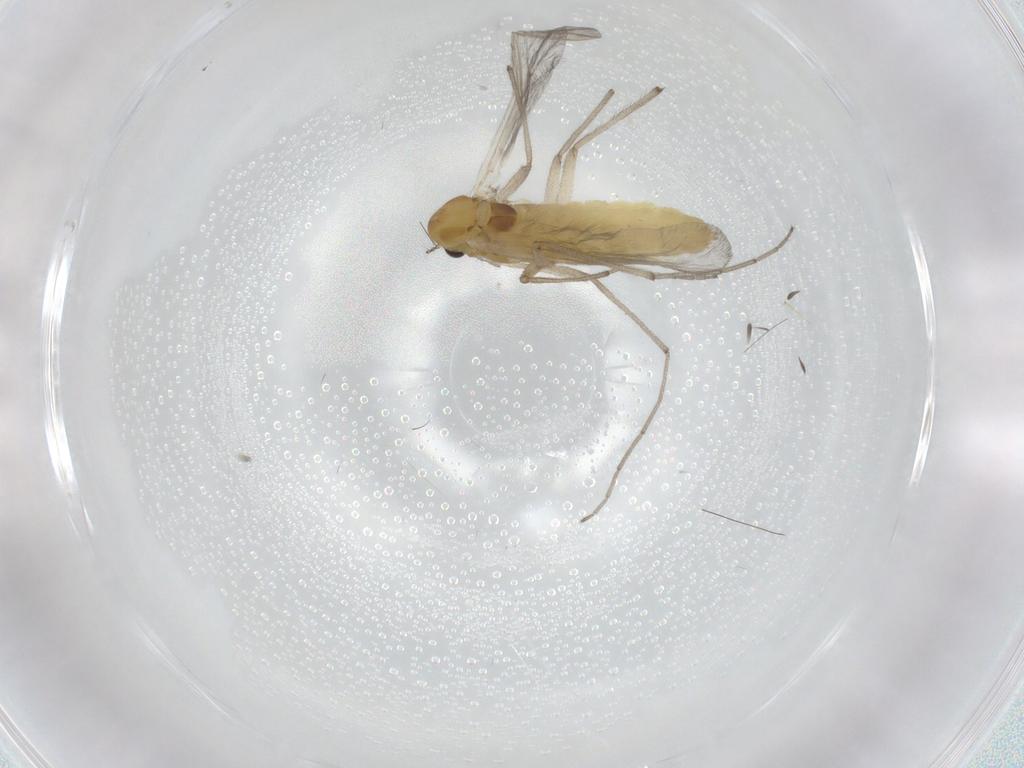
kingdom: Animalia
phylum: Arthropoda
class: Insecta
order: Diptera
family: Chironomidae
